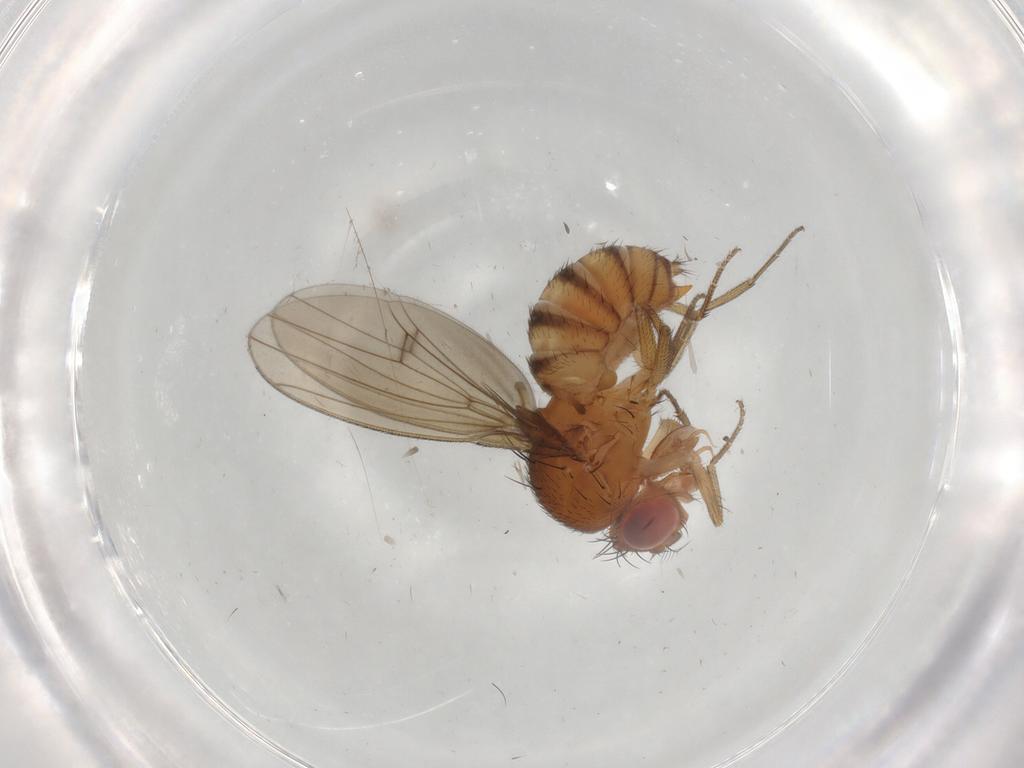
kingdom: Animalia
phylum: Arthropoda
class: Insecta
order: Diptera
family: Drosophilidae
